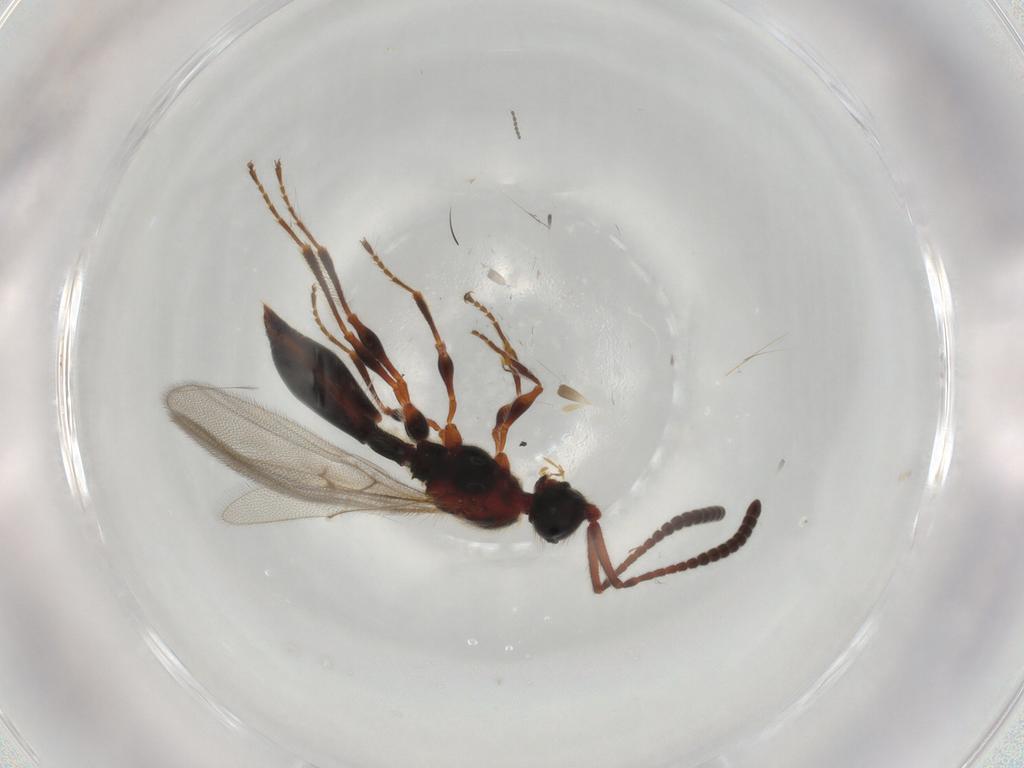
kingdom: Animalia
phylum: Arthropoda
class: Insecta
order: Hymenoptera
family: Diapriidae
